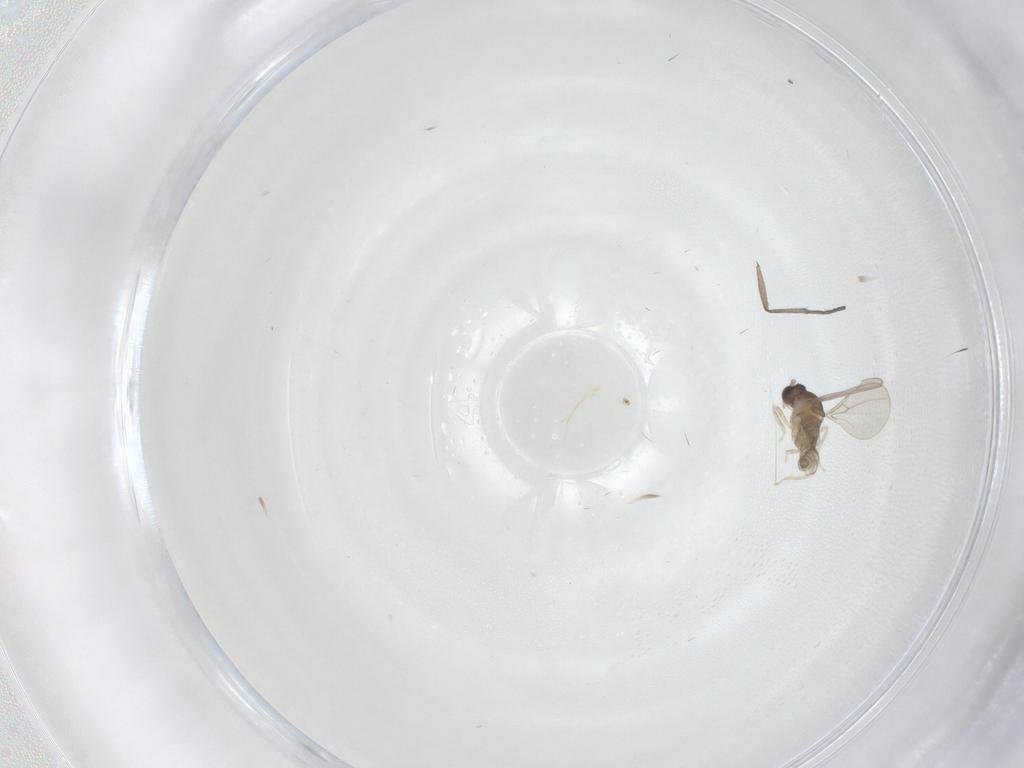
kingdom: Animalia
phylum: Arthropoda
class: Insecta
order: Diptera
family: Cecidomyiidae
